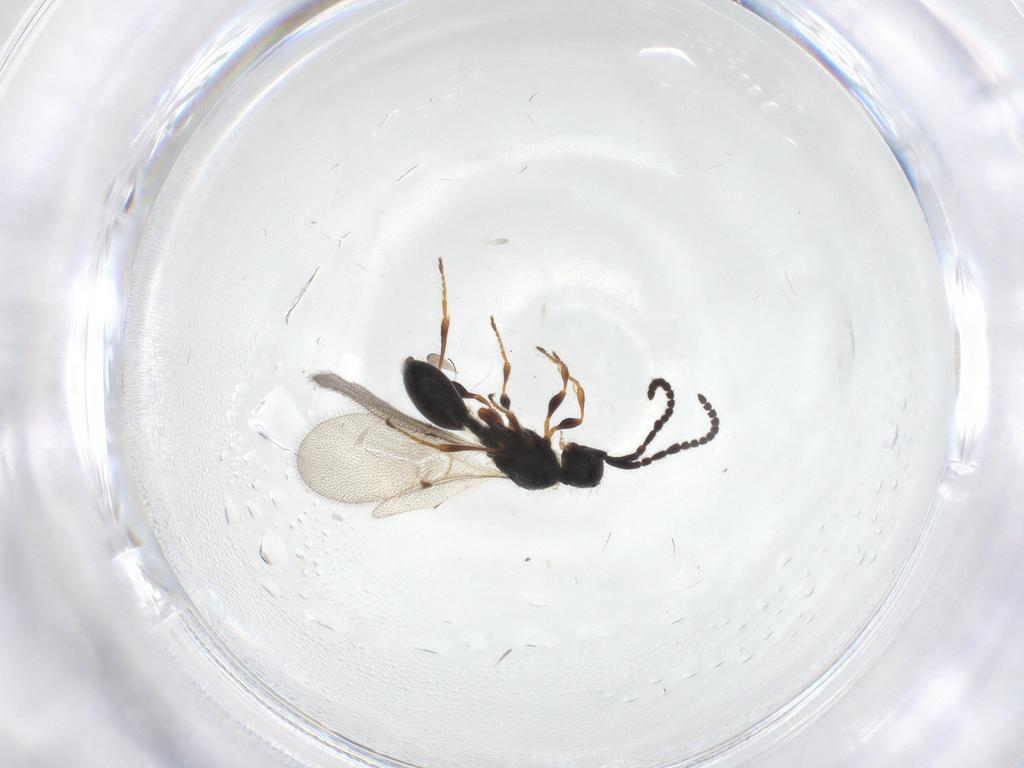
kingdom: Animalia
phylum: Arthropoda
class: Insecta
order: Hymenoptera
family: Diapriidae
